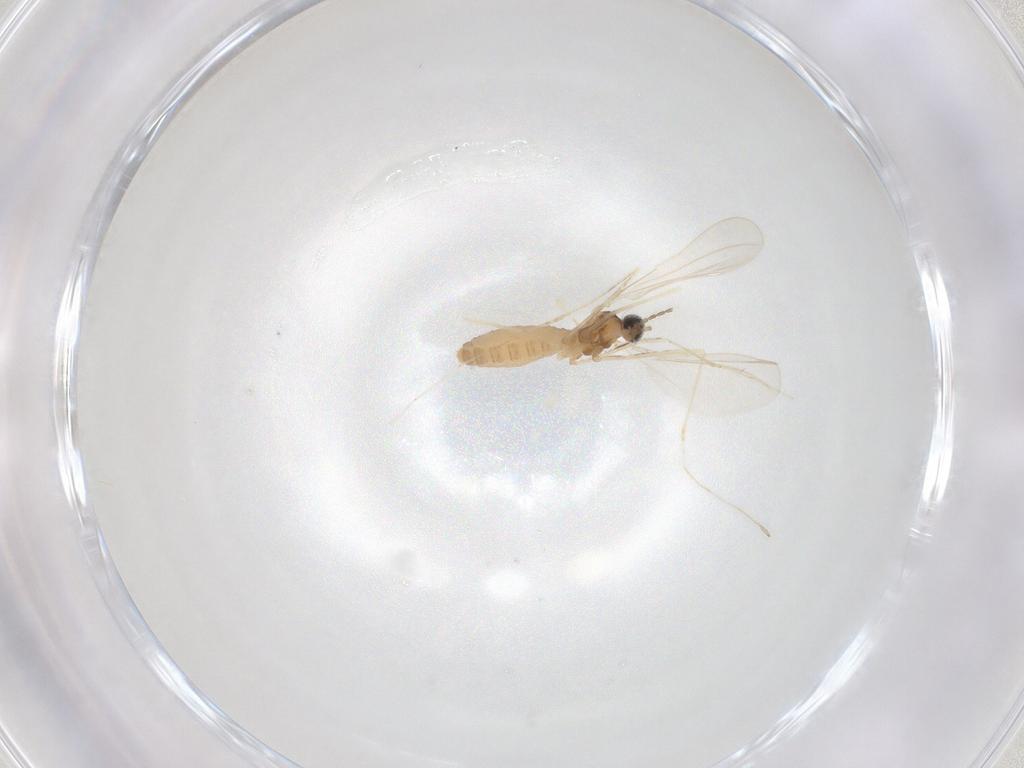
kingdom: Animalia
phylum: Arthropoda
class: Insecta
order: Diptera
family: Cecidomyiidae
